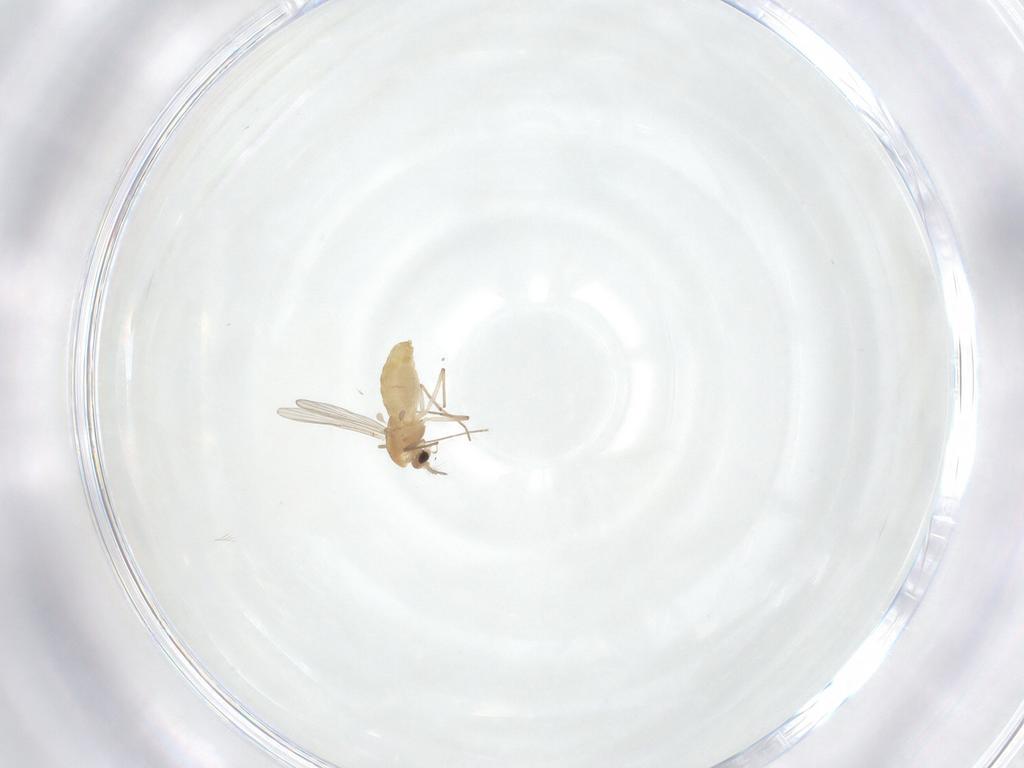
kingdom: Animalia
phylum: Arthropoda
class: Insecta
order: Diptera
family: Chironomidae
